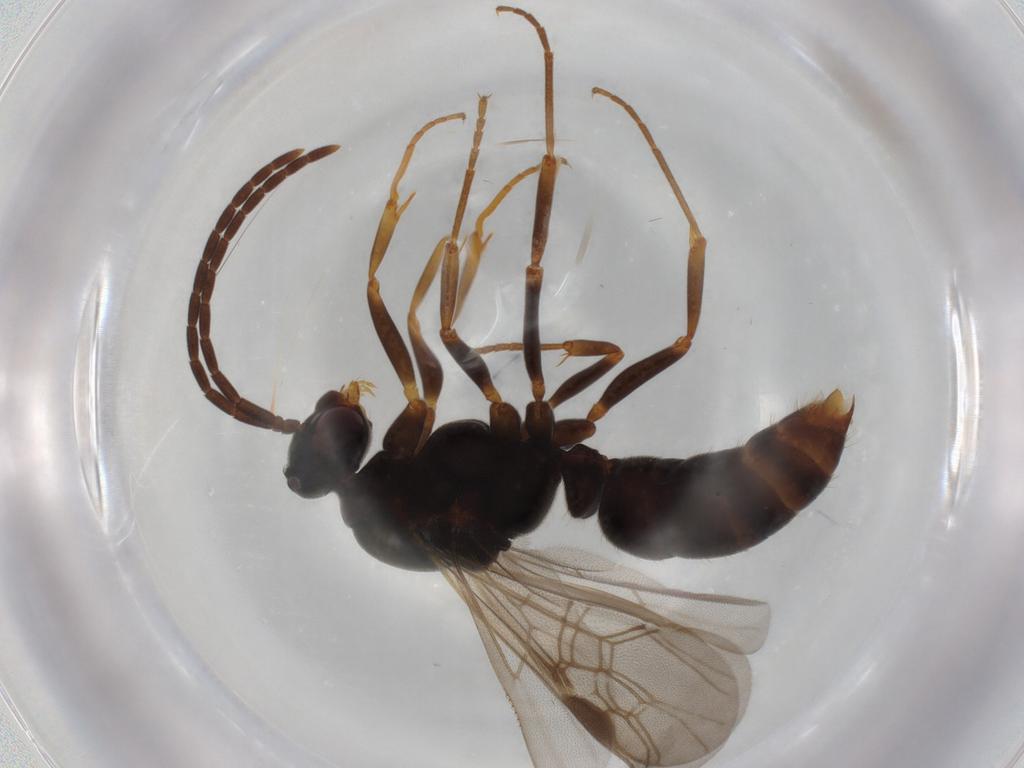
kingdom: Animalia
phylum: Arthropoda
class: Insecta
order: Hymenoptera
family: Formicidae
